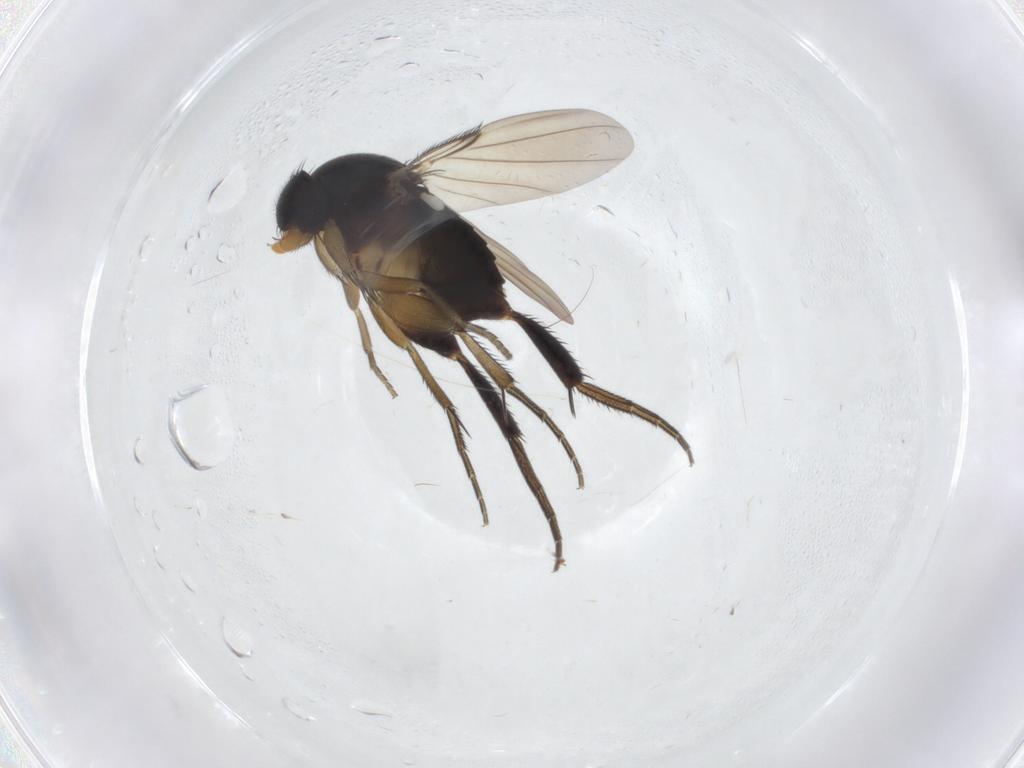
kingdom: Animalia
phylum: Arthropoda
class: Insecta
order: Diptera
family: Phoridae
